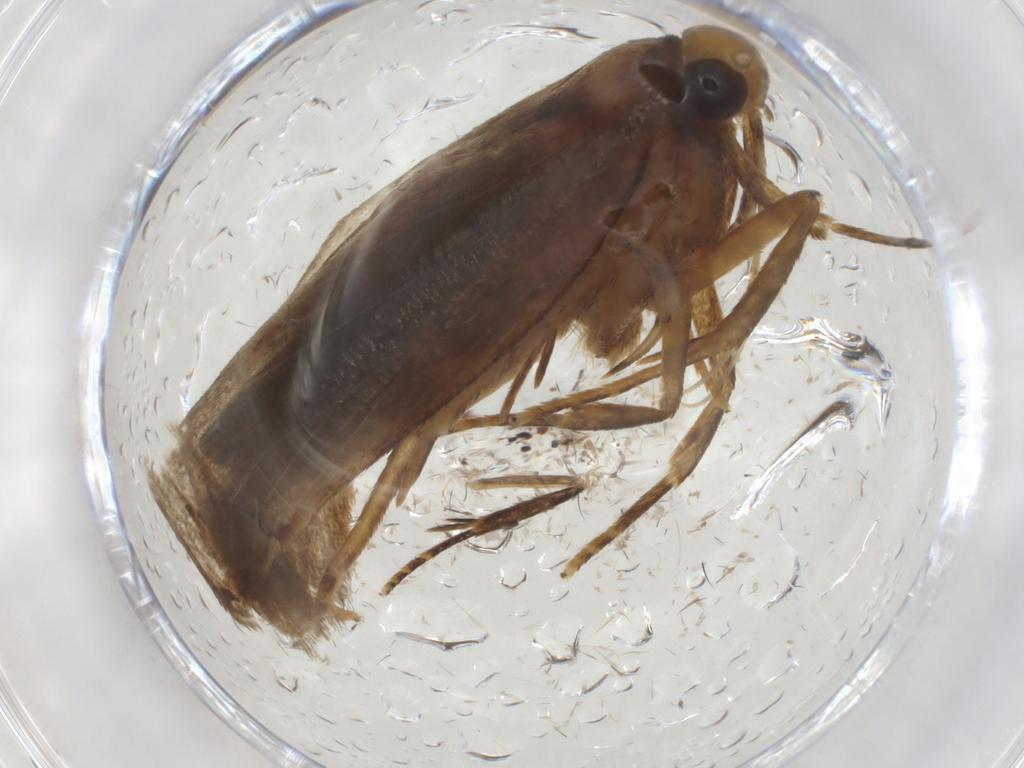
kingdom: Animalia
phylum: Arthropoda
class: Insecta
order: Lepidoptera
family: Autostichidae
